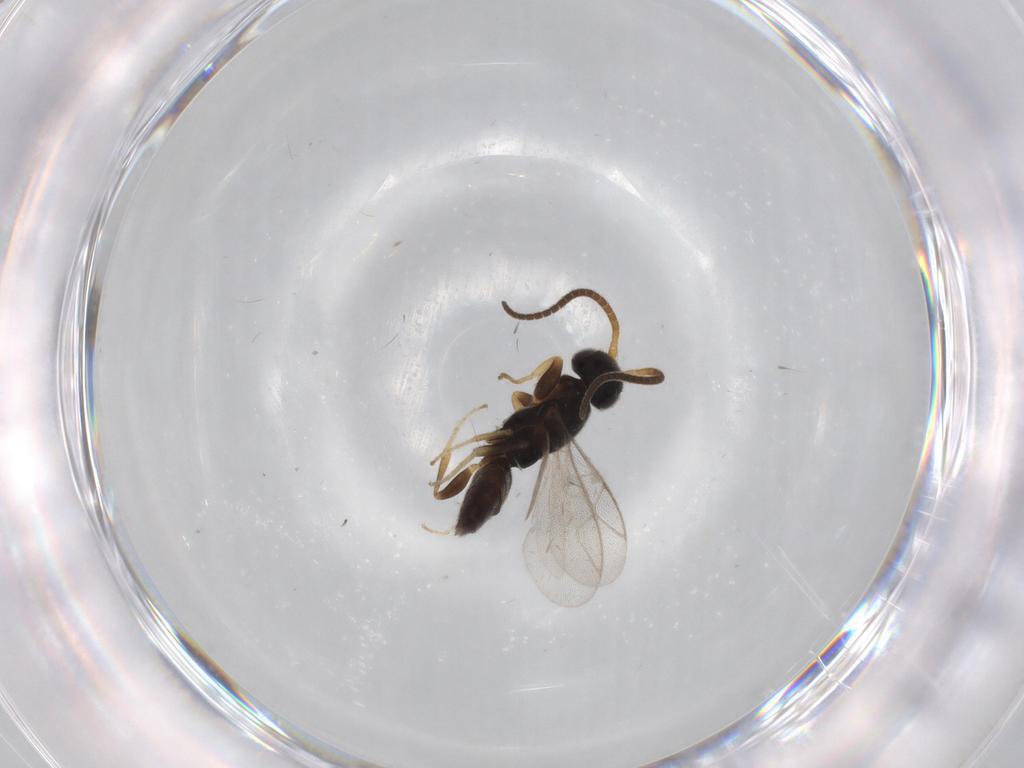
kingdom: Animalia
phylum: Arthropoda
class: Insecta
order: Hymenoptera
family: Sclerogibbidae
